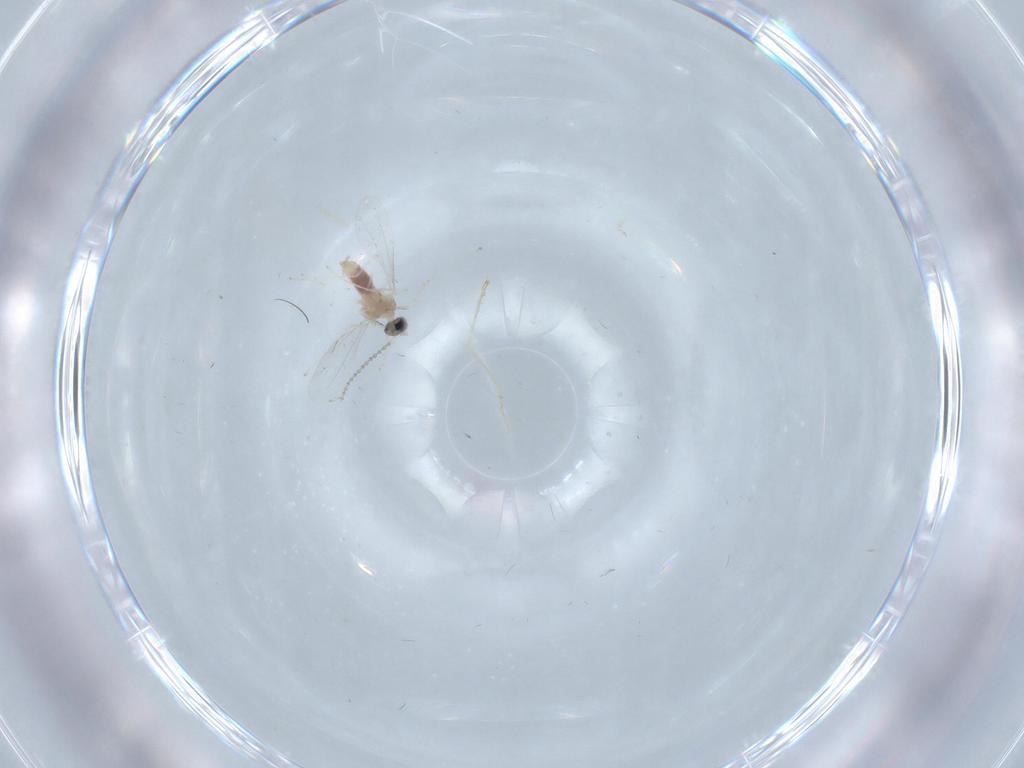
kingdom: Animalia
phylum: Arthropoda
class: Insecta
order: Diptera
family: Cecidomyiidae
